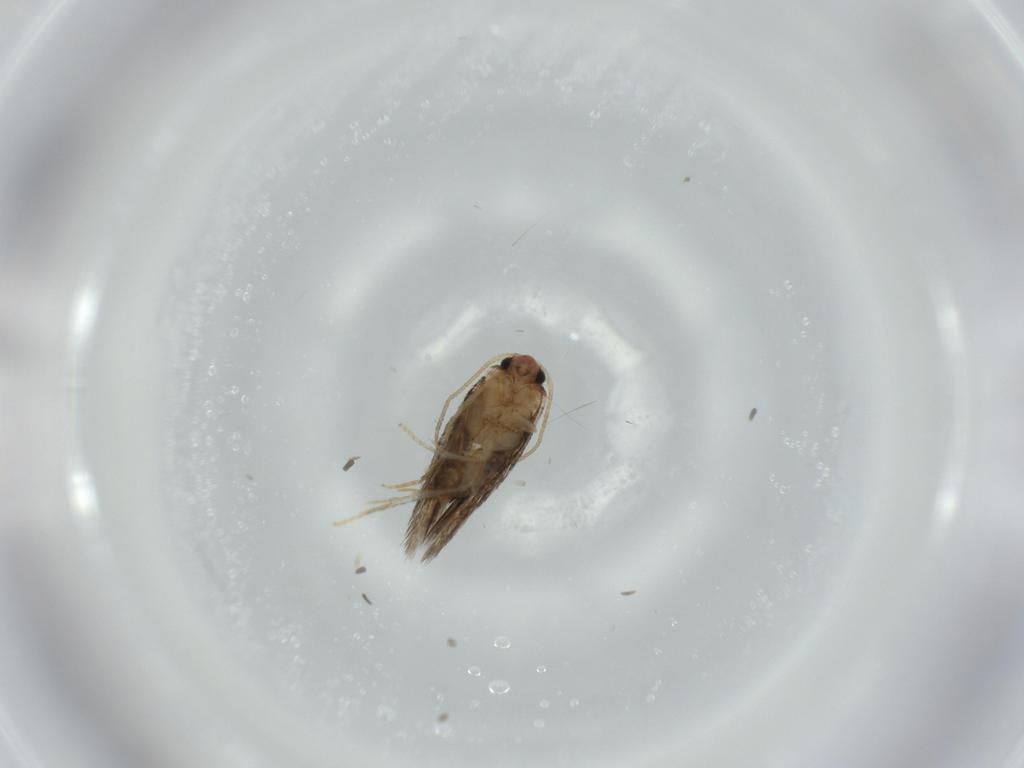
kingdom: Animalia
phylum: Arthropoda
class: Insecta
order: Lepidoptera
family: Nepticulidae
